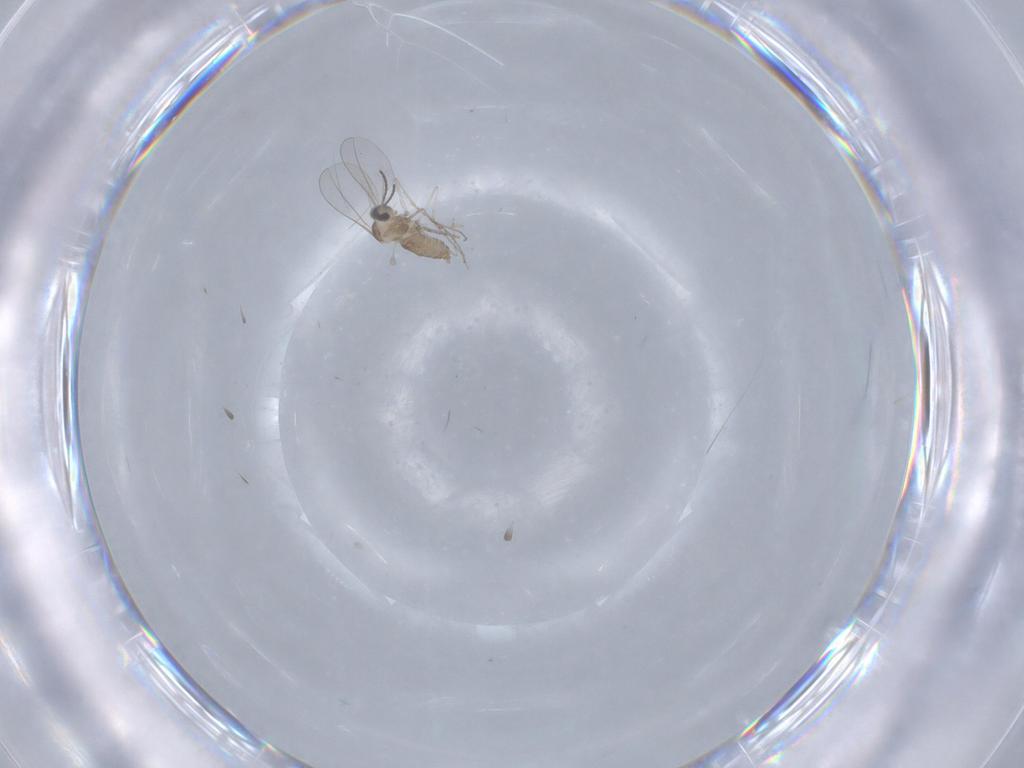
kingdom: Animalia
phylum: Arthropoda
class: Insecta
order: Diptera
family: Cecidomyiidae
